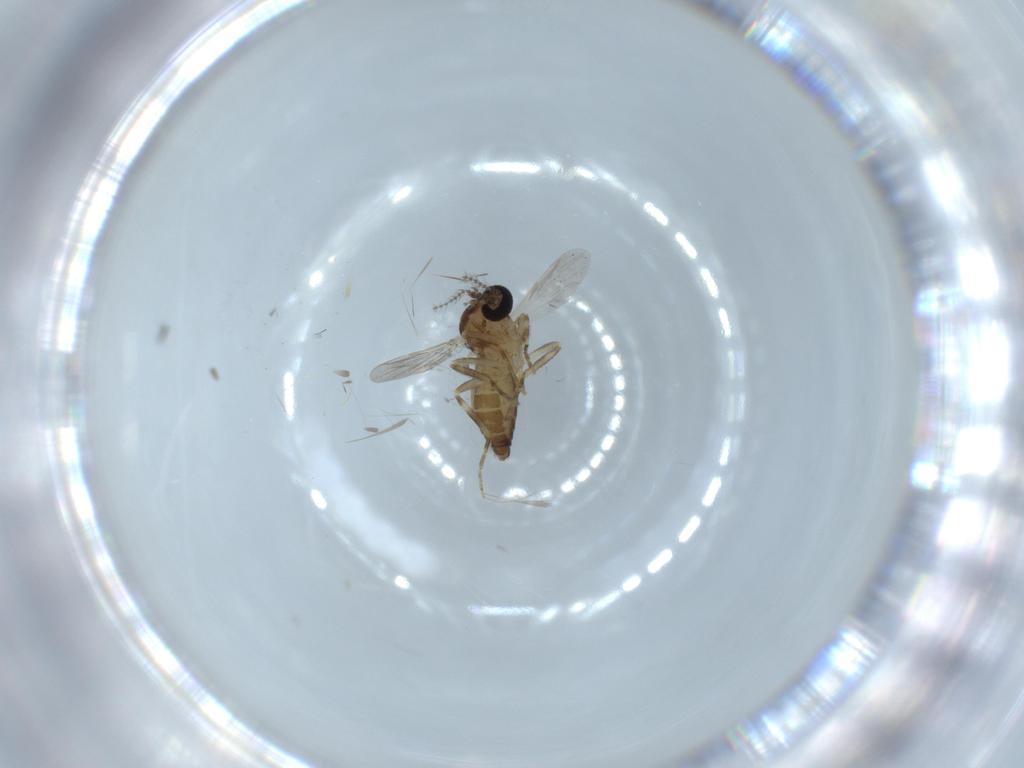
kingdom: Animalia
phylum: Arthropoda
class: Insecta
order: Diptera
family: Ceratopogonidae
